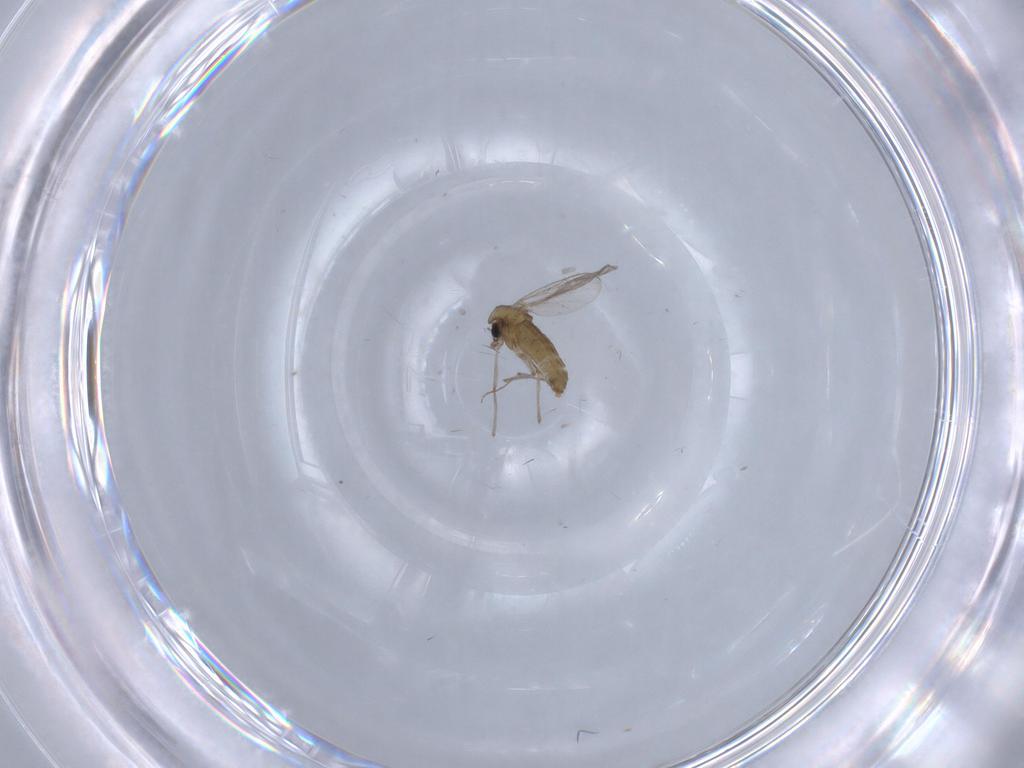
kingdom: Animalia
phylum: Arthropoda
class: Insecta
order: Diptera
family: Chironomidae
